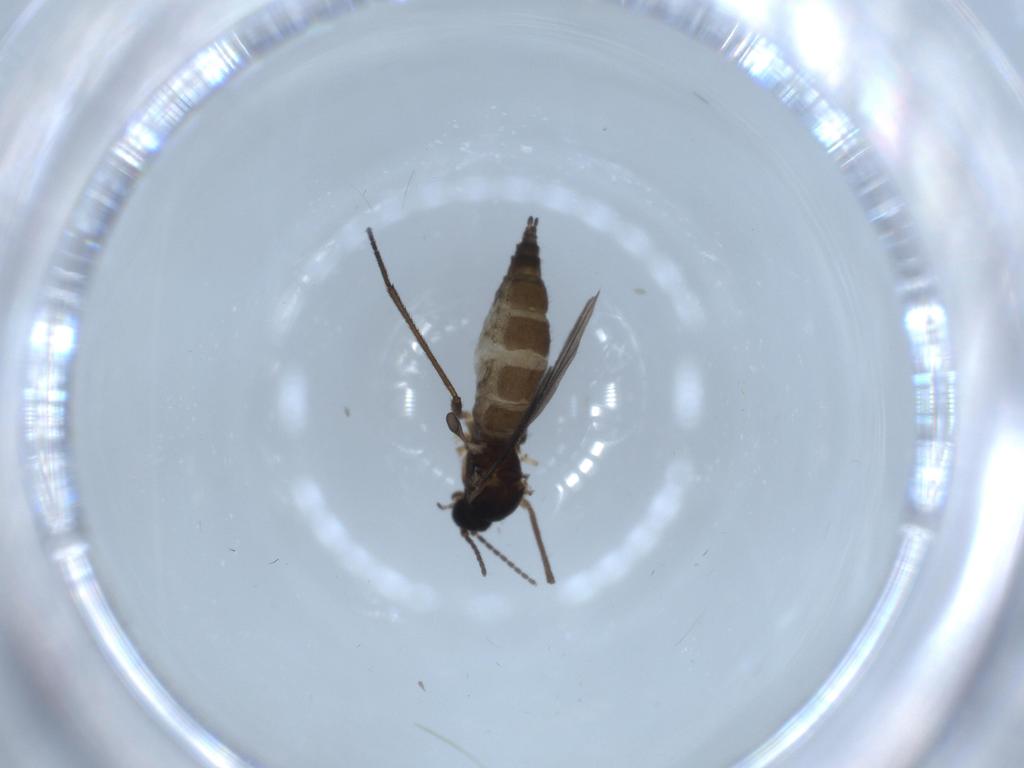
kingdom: Animalia
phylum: Arthropoda
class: Insecta
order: Diptera
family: Sciaridae
